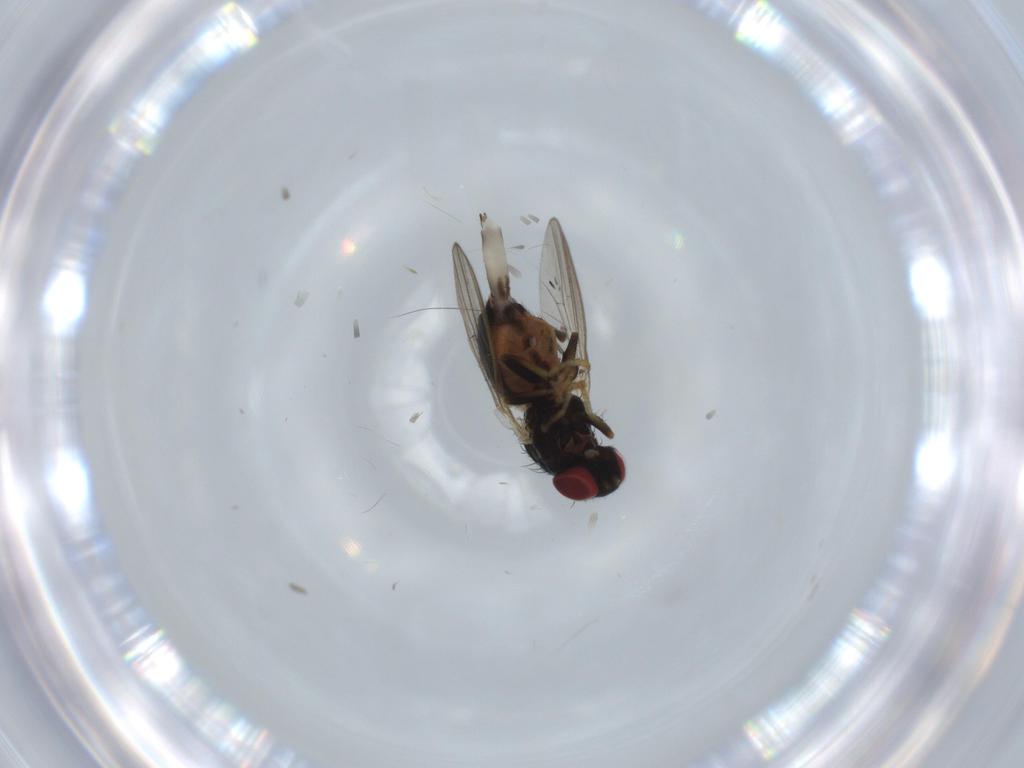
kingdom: Animalia
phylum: Arthropoda
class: Insecta
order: Diptera
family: Chamaemyiidae
